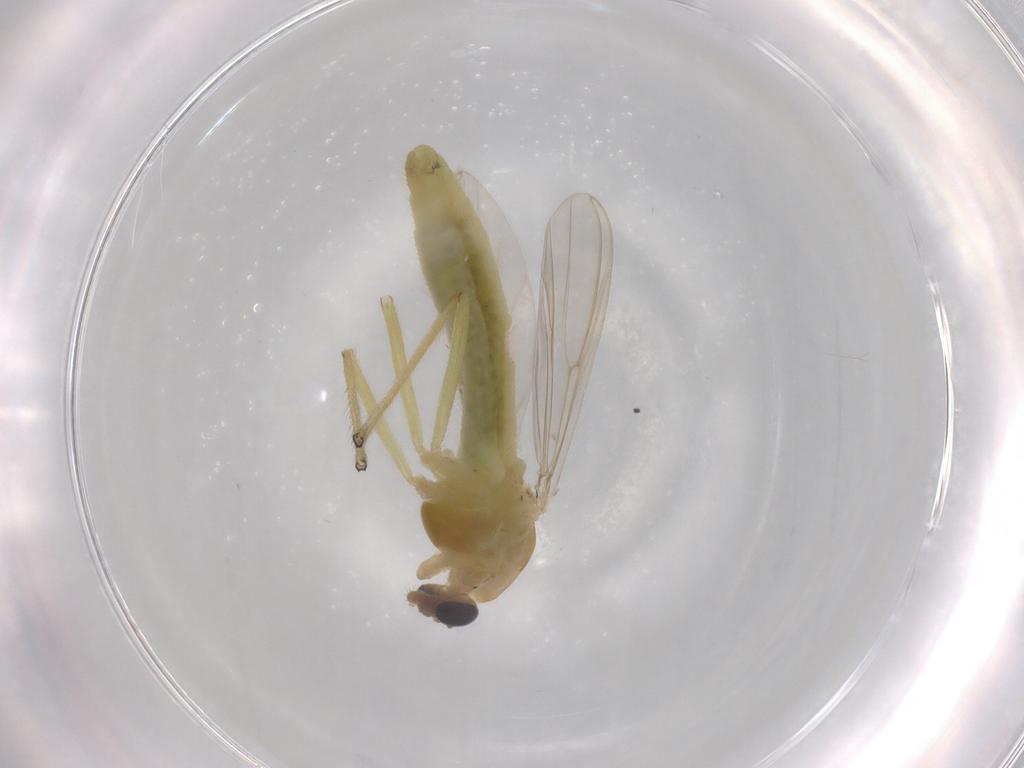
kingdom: Animalia
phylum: Arthropoda
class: Insecta
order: Diptera
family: Chironomidae
